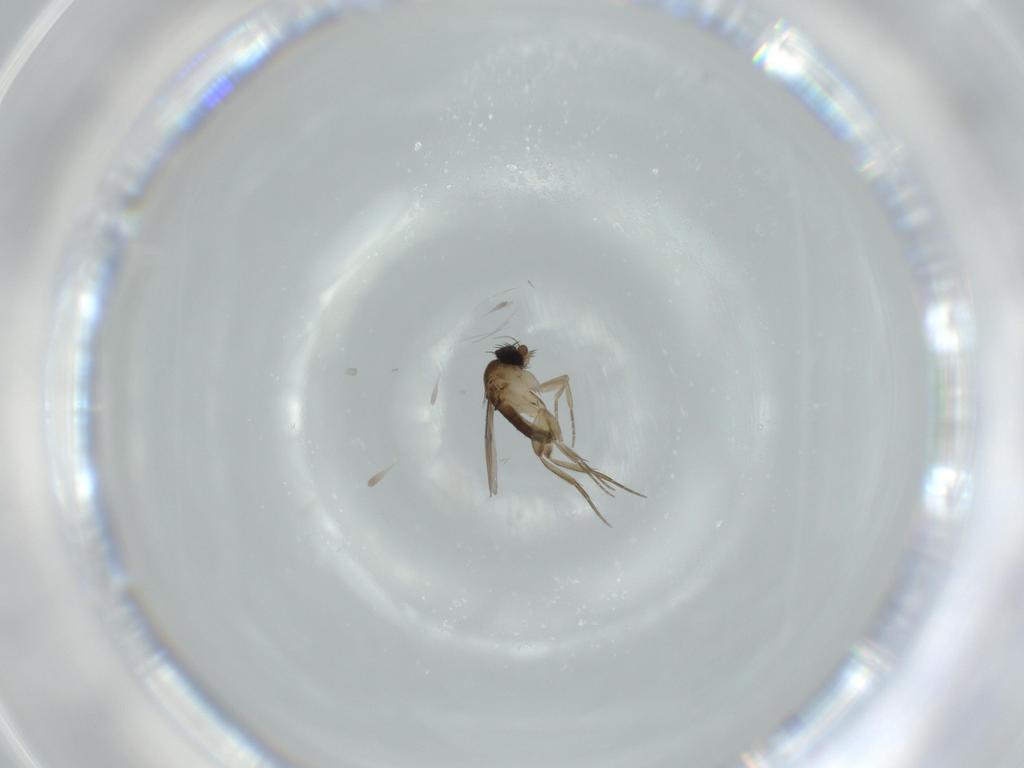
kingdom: Animalia
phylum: Arthropoda
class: Insecta
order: Diptera
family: Phoridae
